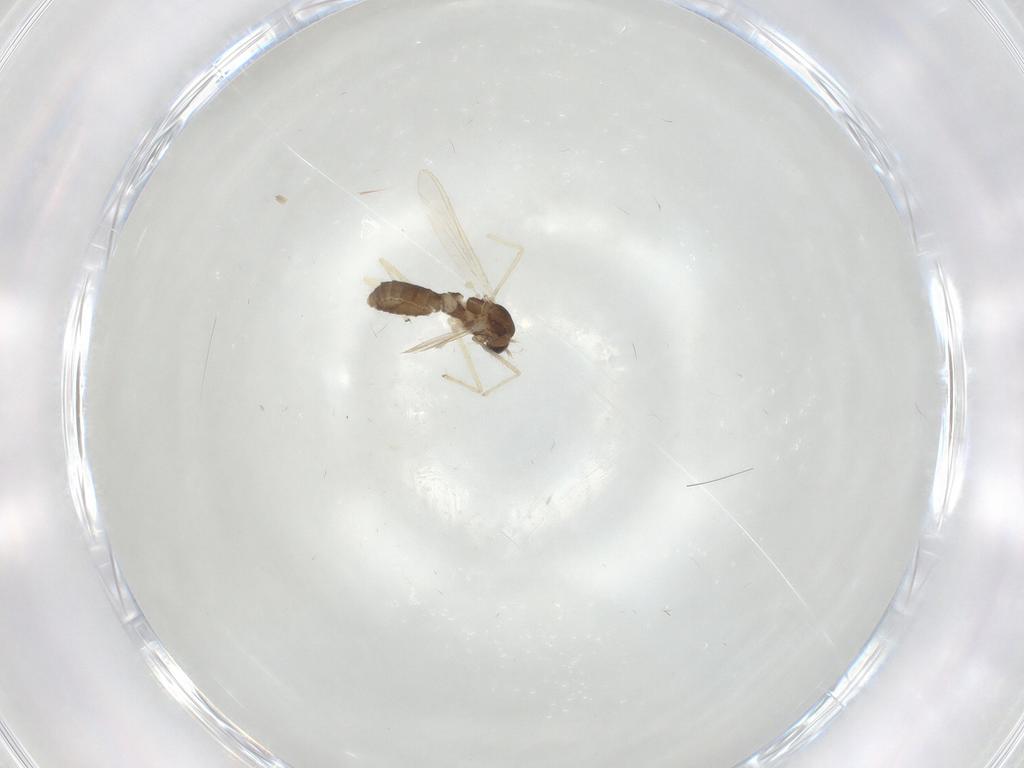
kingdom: Animalia
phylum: Arthropoda
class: Insecta
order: Diptera
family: Chironomidae
